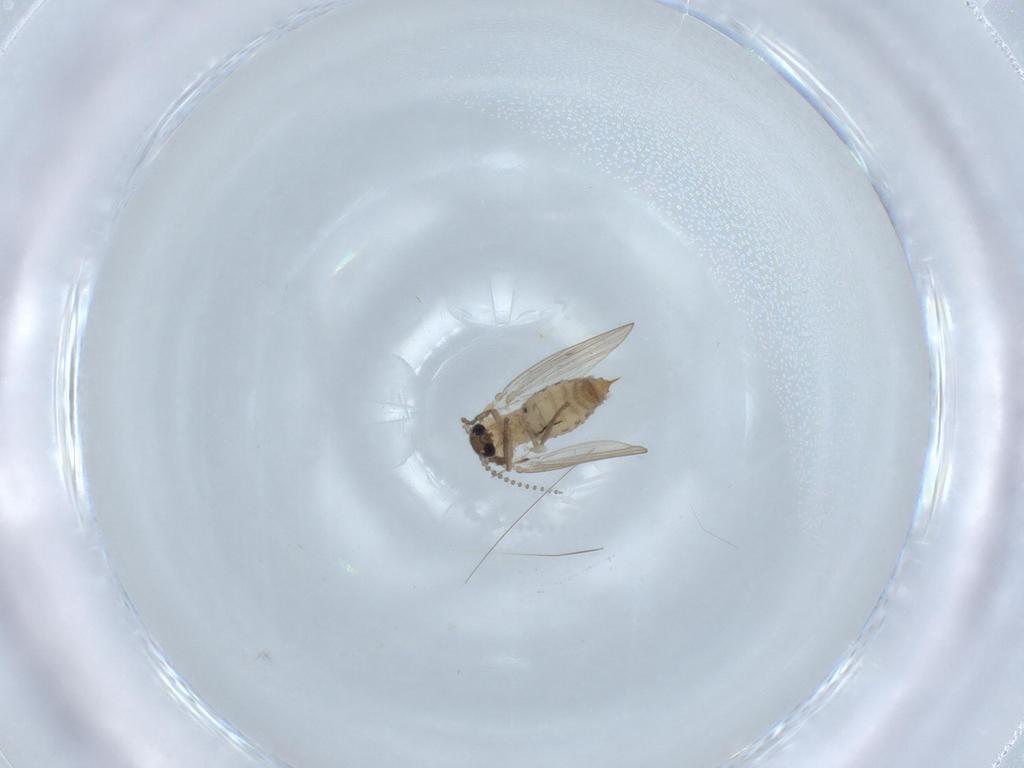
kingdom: Animalia
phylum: Arthropoda
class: Insecta
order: Diptera
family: Psychodidae
